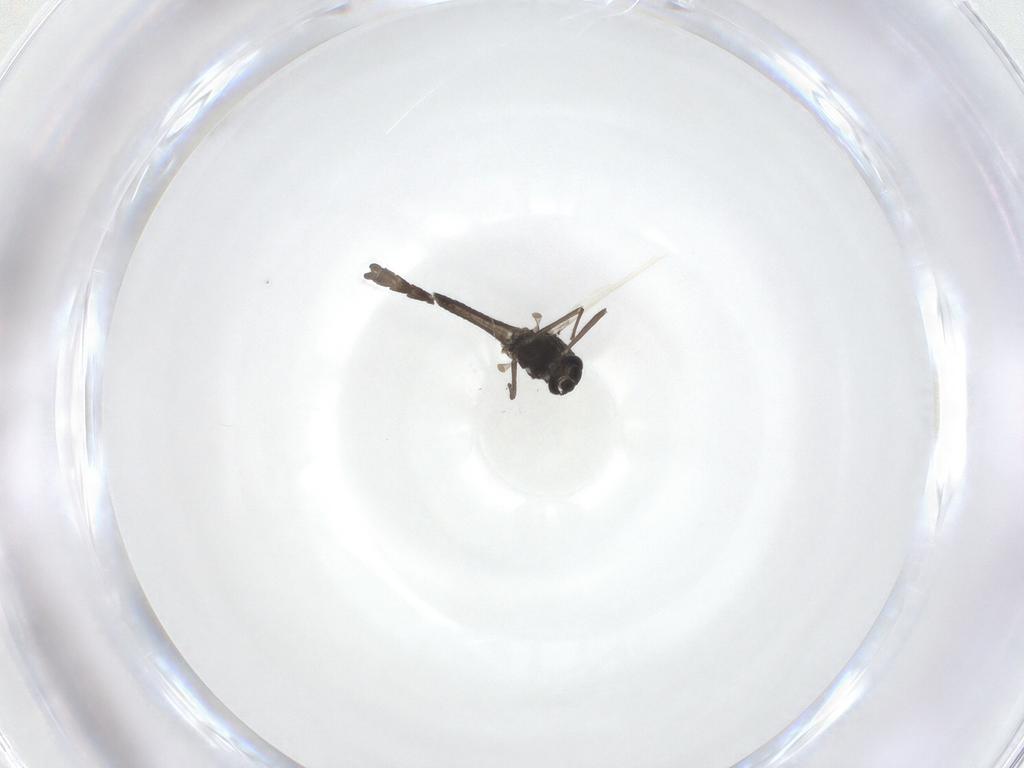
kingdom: Animalia
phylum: Arthropoda
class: Insecta
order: Diptera
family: Chironomidae
